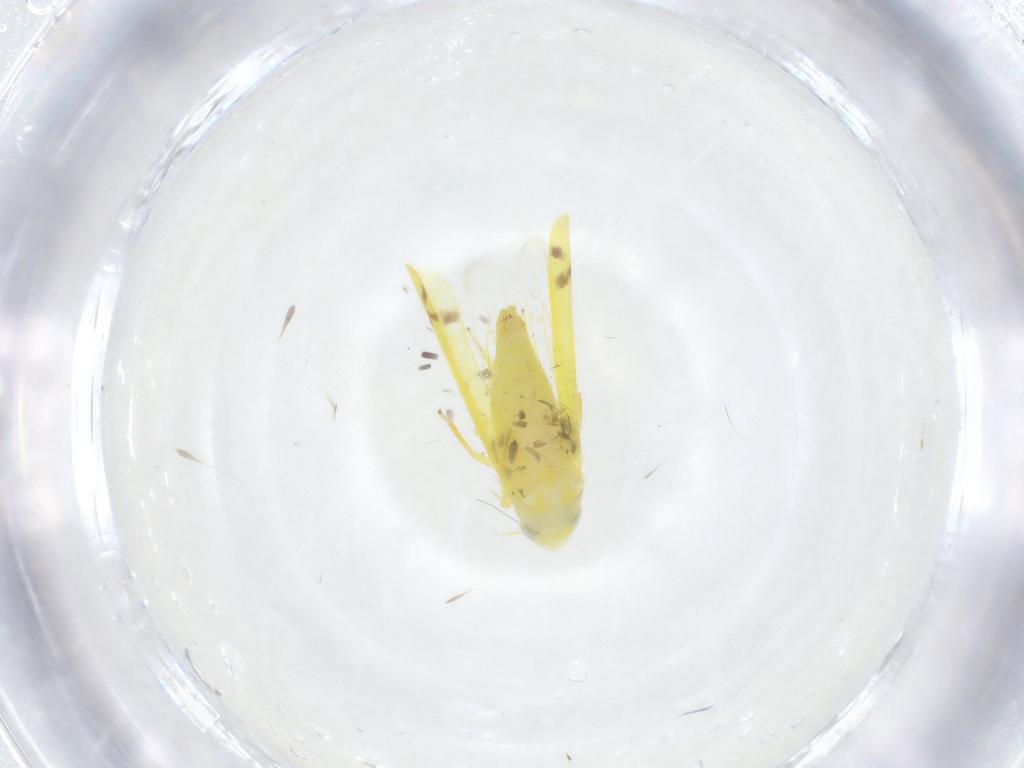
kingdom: Animalia
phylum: Arthropoda
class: Insecta
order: Hemiptera
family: Cicadellidae
